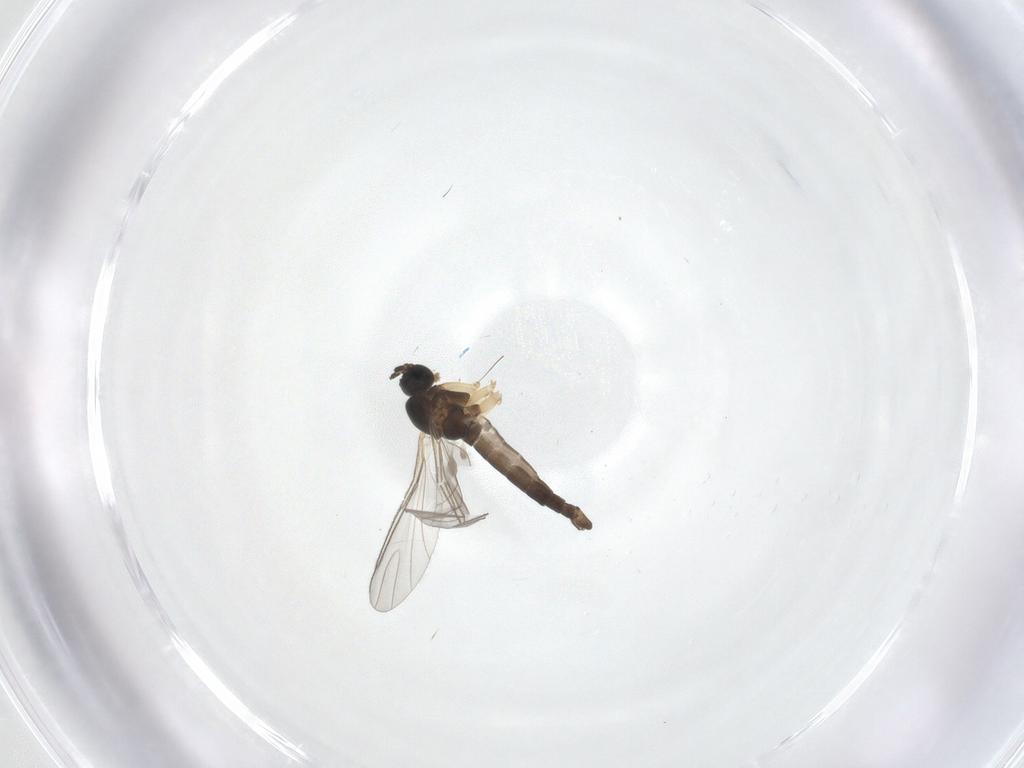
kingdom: Animalia
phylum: Arthropoda
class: Insecta
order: Diptera
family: Sciaridae
